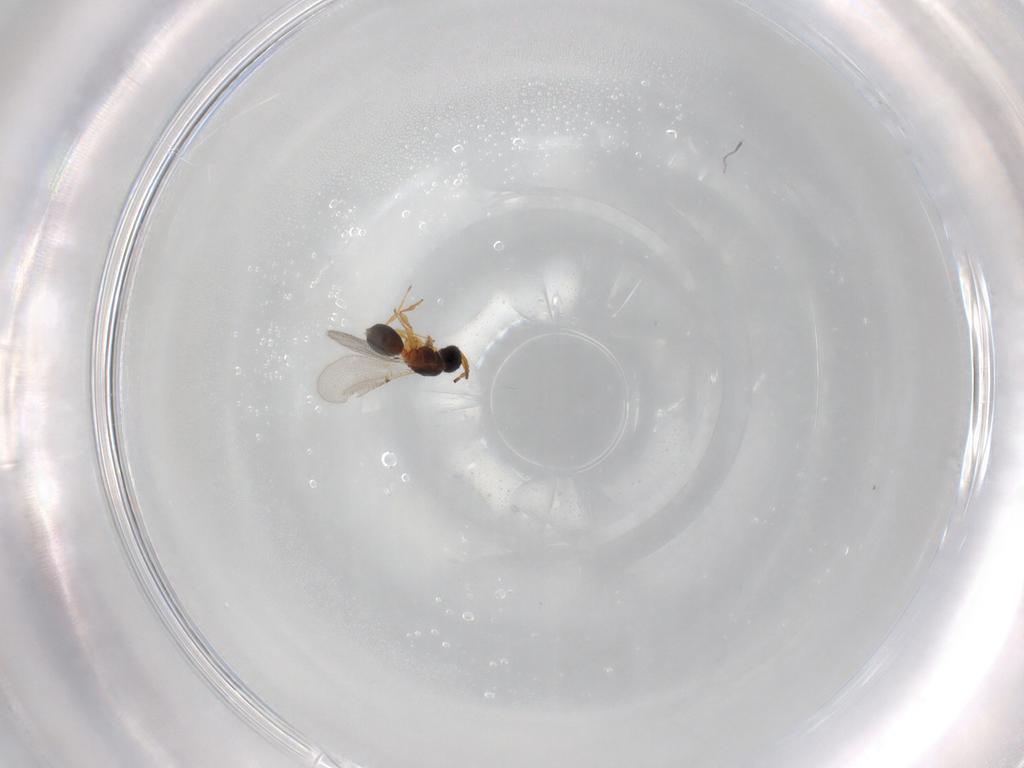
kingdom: Animalia
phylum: Arthropoda
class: Insecta
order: Hymenoptera
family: Diapriidae
